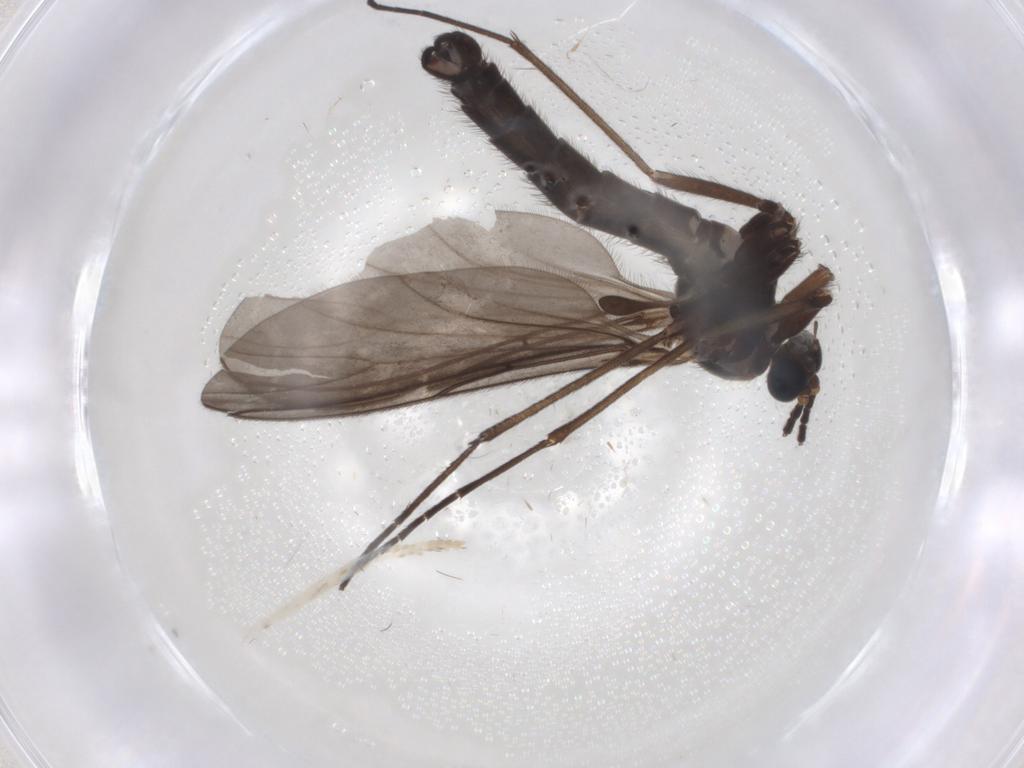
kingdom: Animalia
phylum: Arthropoda
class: Insecta
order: Diptera
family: Sciaridae
